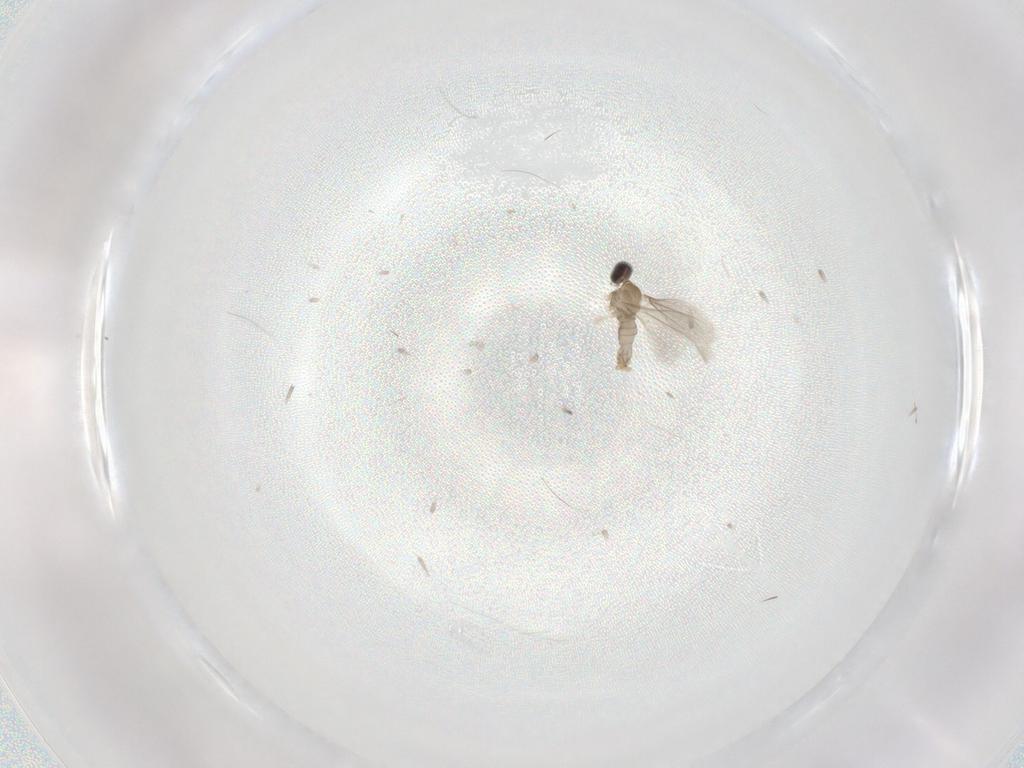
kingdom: Animalia
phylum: Arthropoda
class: Insecta
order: Diptera
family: Cecidomyiidae
